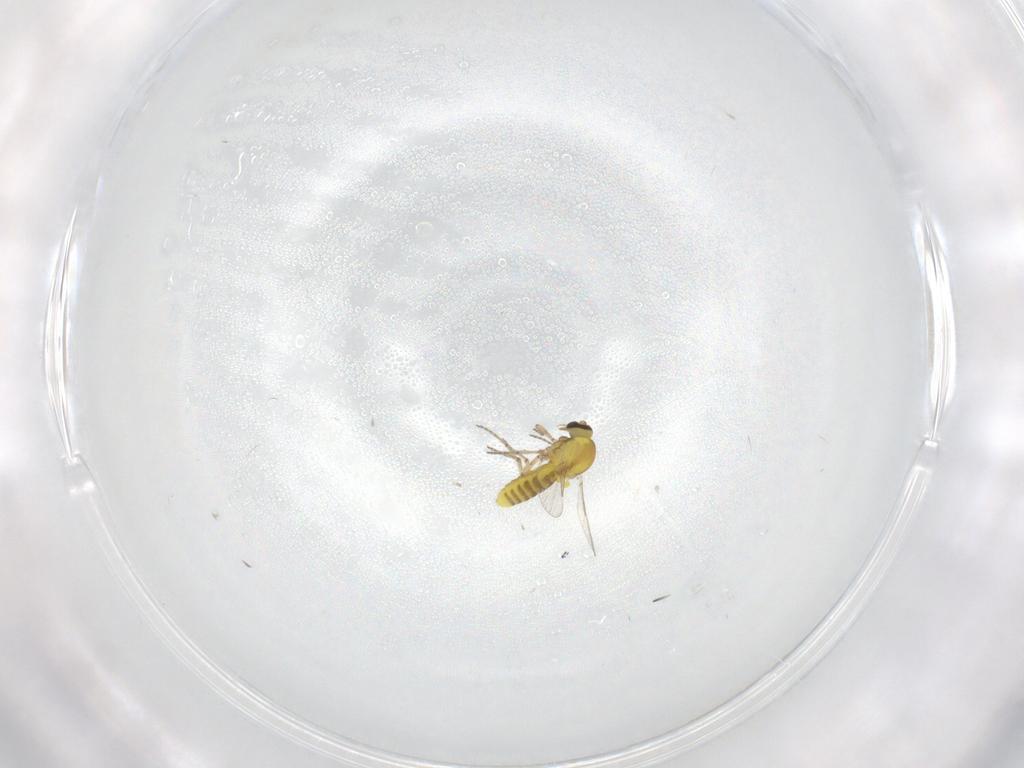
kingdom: Animalia
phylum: Arthropoda
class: Insecta
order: Diptera
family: Ceratopogonidae
